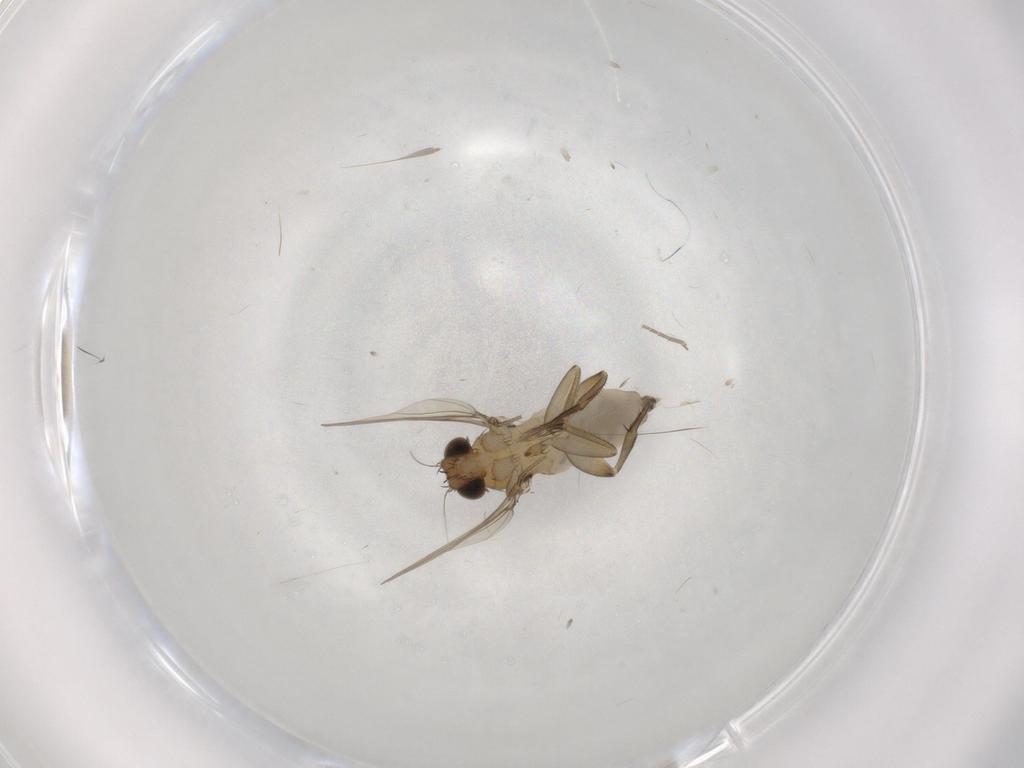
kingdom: Animalia
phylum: Arthropoda
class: Insecta
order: Diptera
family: Phoridae
